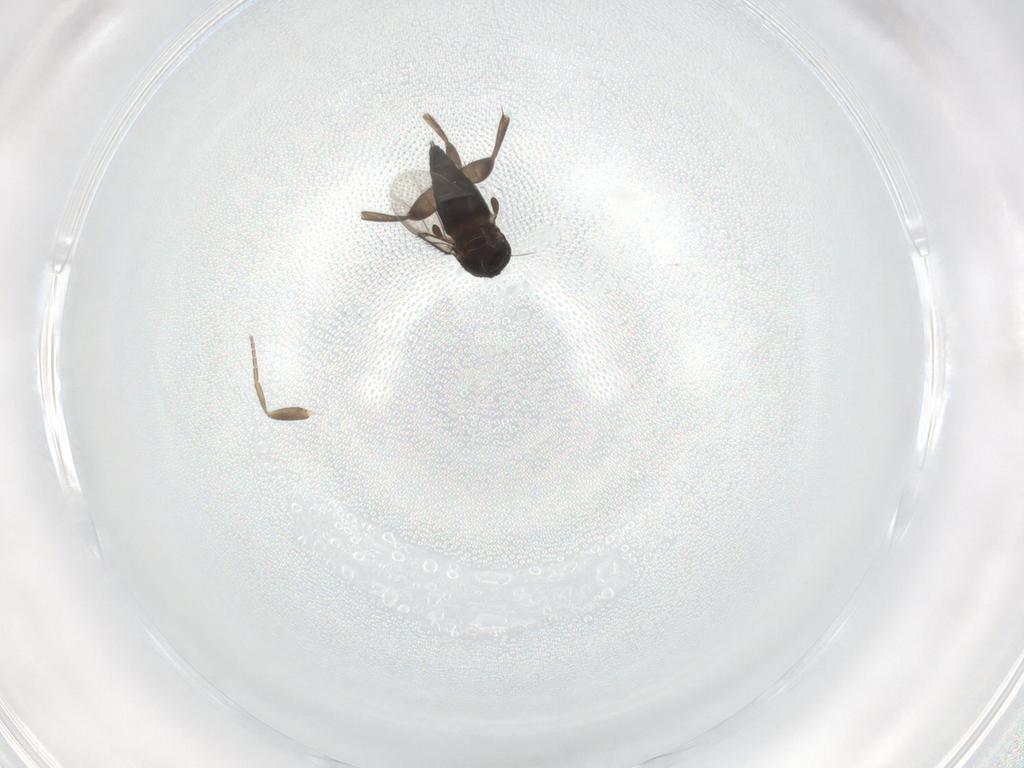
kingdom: Animalia
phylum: Arthropoda
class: Insecta
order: Diptera
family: Phoridae
